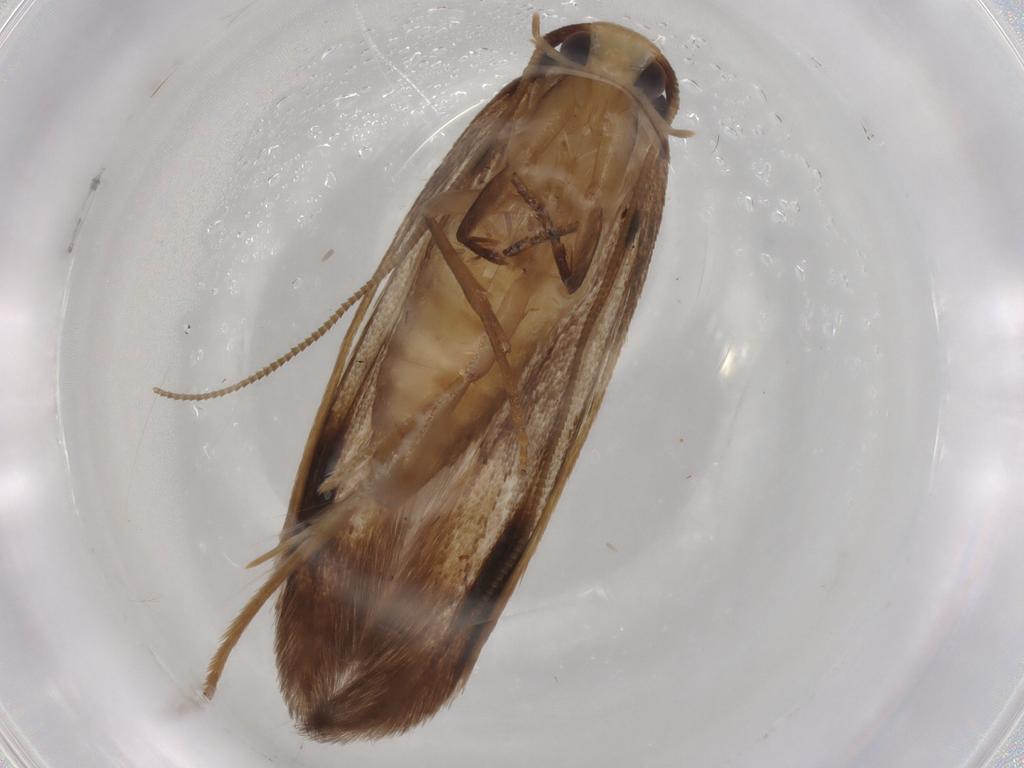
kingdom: Animalia
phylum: Arthropoda
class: Insecta
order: Lepidoptera
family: Tineidae
